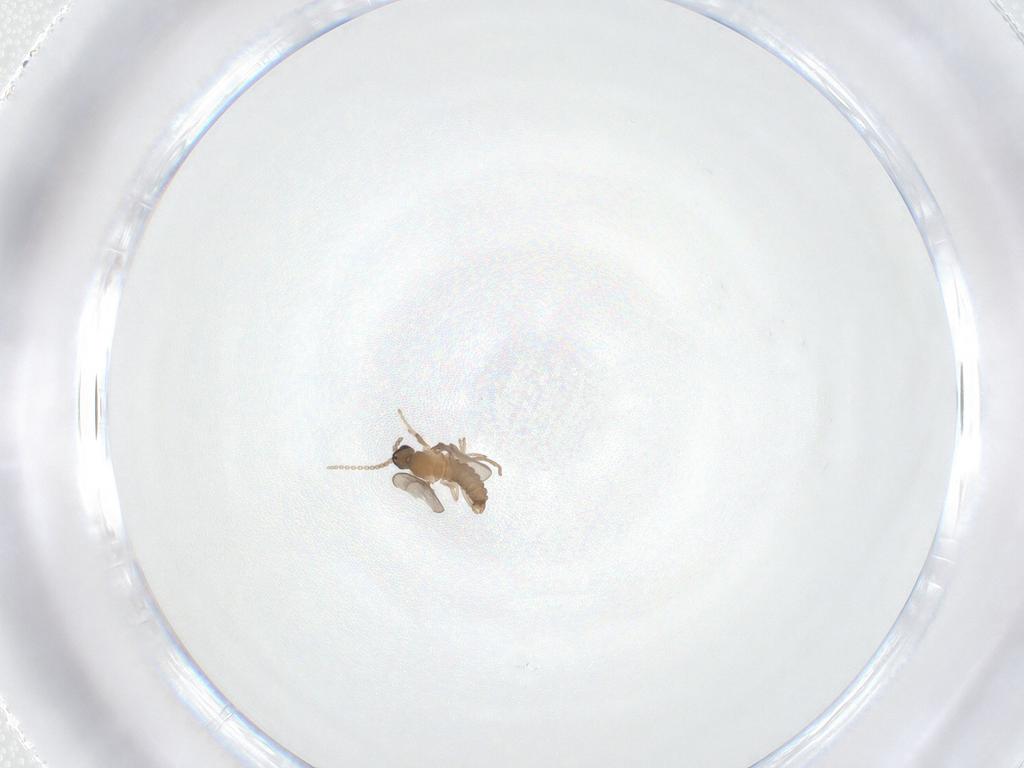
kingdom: Animalia
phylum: Arthropoda
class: Insecta
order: Diptera
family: Cecidomyiidae
